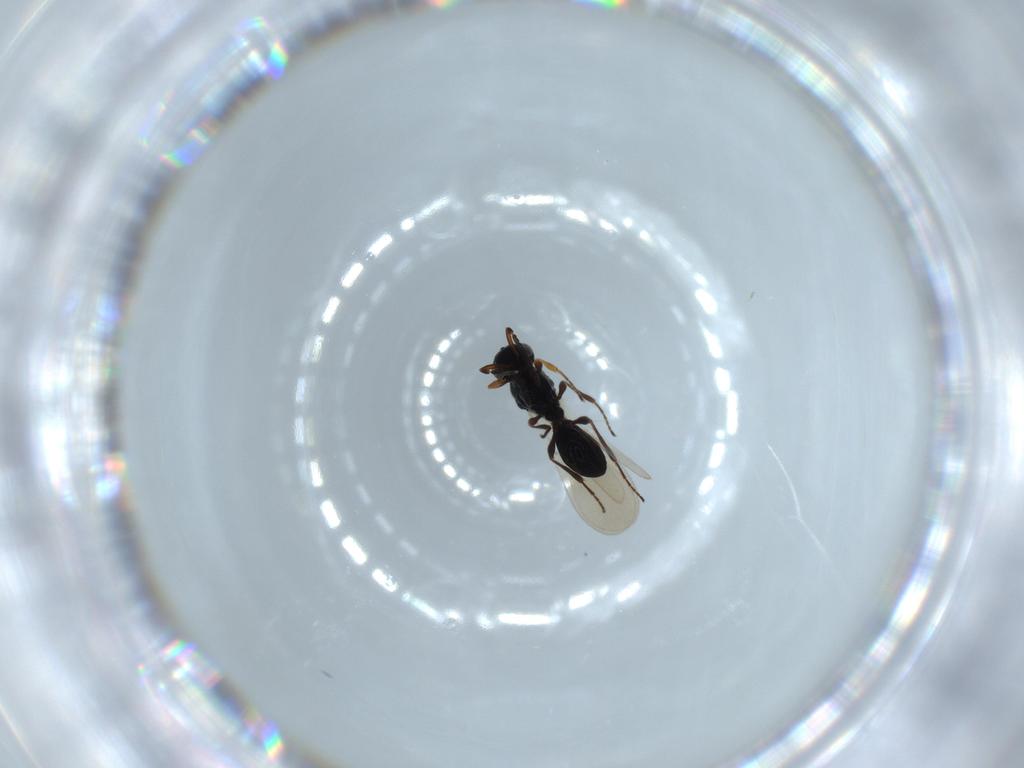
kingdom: Animalia
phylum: Arthropoda
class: Insecta
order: Hymenoptera
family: Platygastridae
